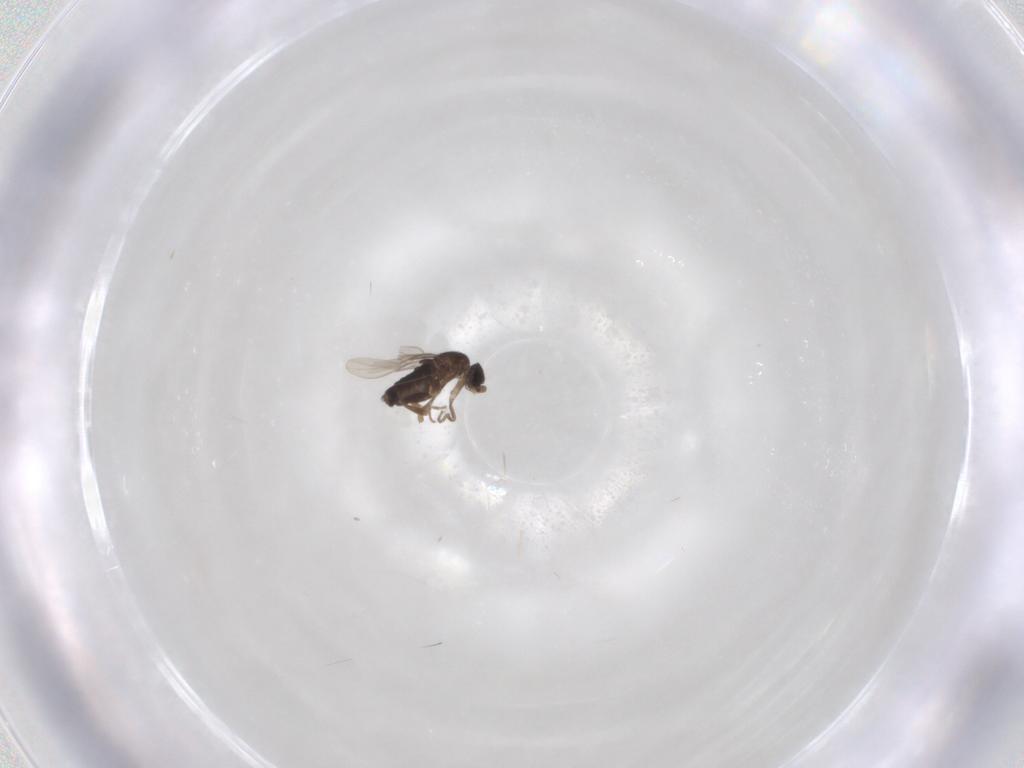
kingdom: Animalia
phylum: Arthropoda
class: Insecta
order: Diptera
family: Phoridae
